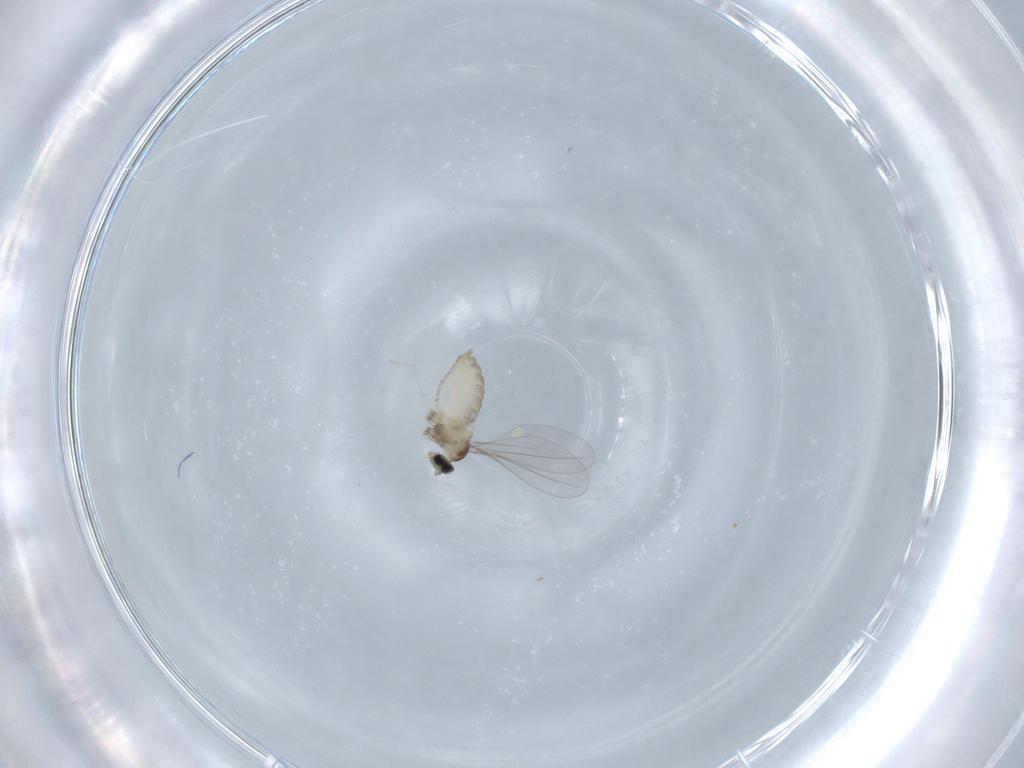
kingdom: Animalia
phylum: Arthropoda
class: Insecta
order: Diptera
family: Cecidomyiidae
